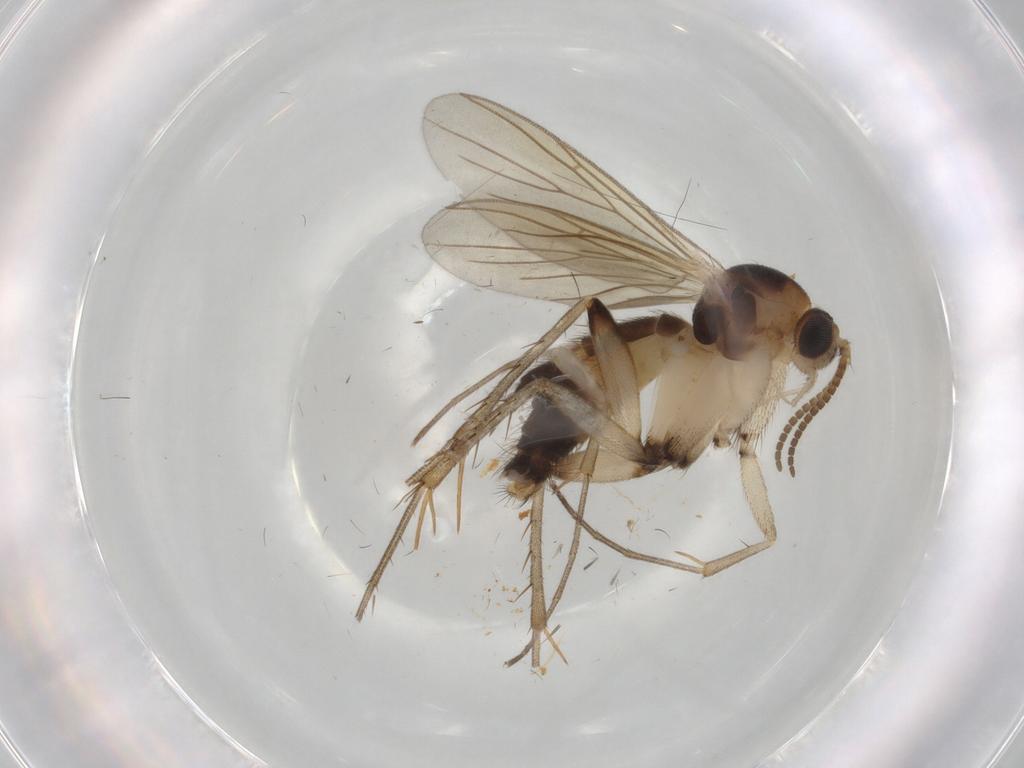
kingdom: Animalia
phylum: Arthropoda
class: Insecta
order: Diptera
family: Mycetophilidae
